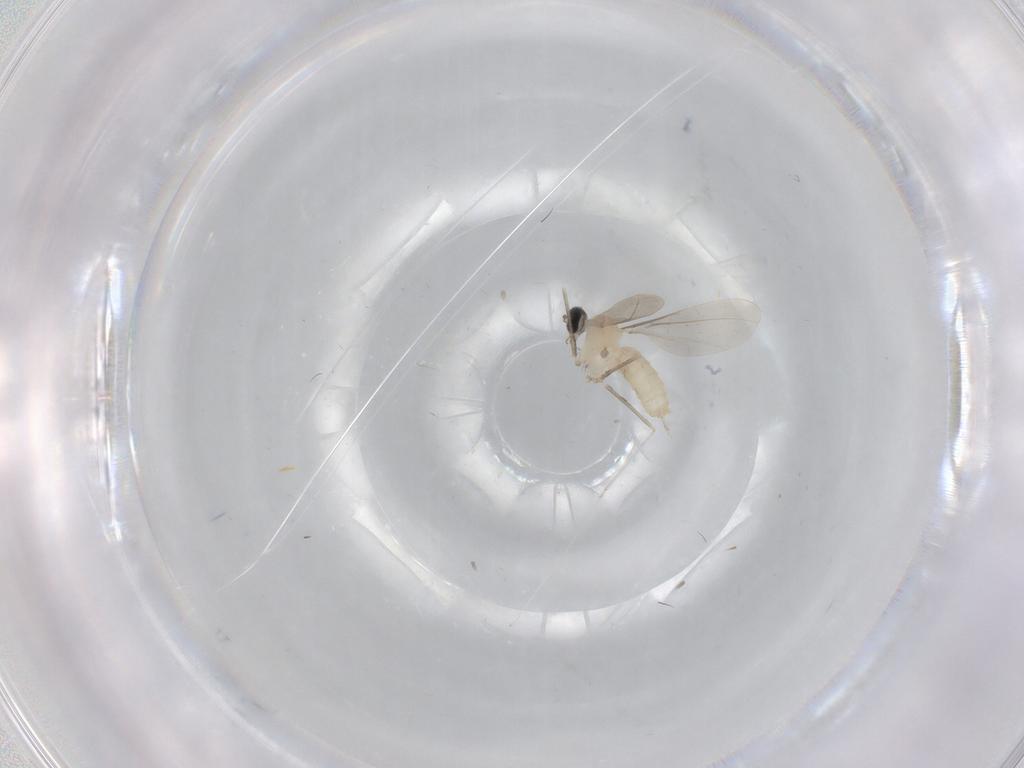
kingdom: Animalia
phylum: Arthropoda
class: Insecta
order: Diptera
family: Cecidomyiidae
